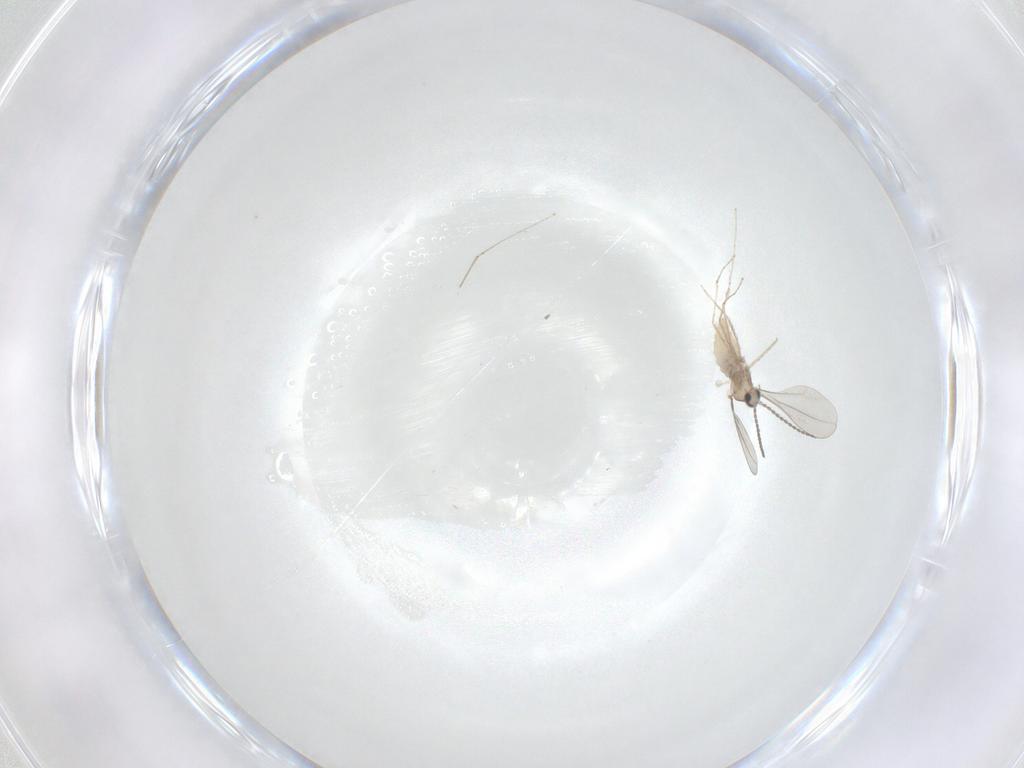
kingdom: Animalia
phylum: Arthropoda
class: Insecta
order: Diptera
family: Cecidomyiidae
